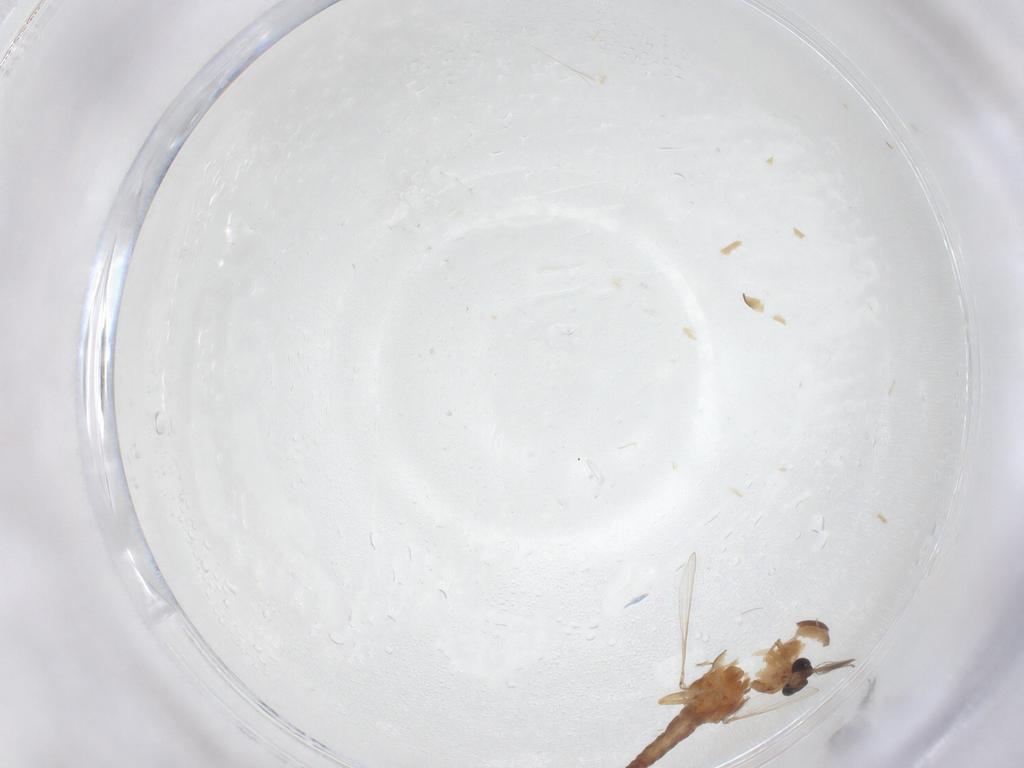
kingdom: Animalia
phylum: Arthropoda
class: Insecta
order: Diptera
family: Ceratopogonidae
